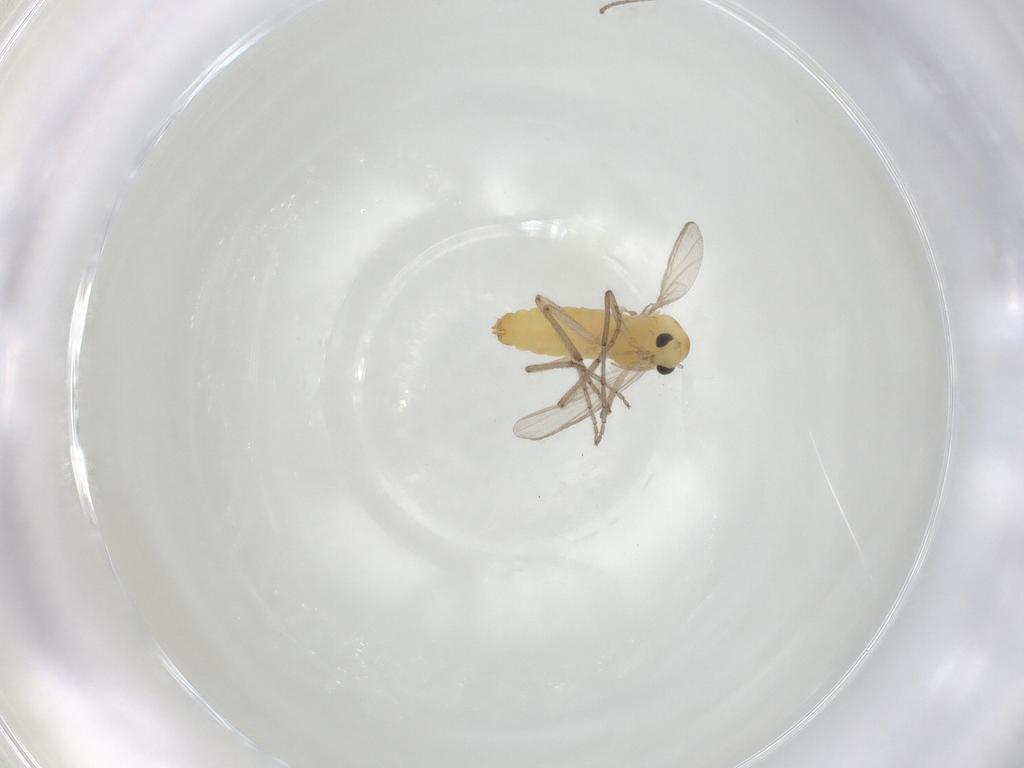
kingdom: Animalia
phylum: Arthropoda
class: Insecta
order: Diptera
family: Chironomidae
